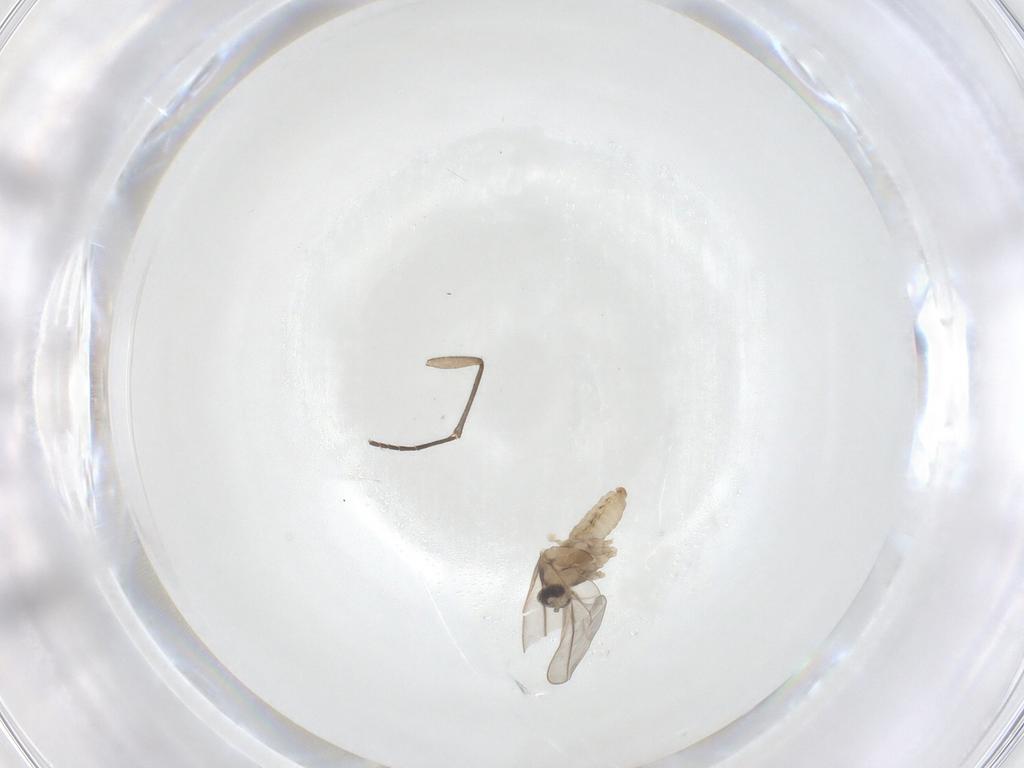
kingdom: Animalia
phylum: Arthropoda
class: Insecta
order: Diptera
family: Cecidomyiidae
